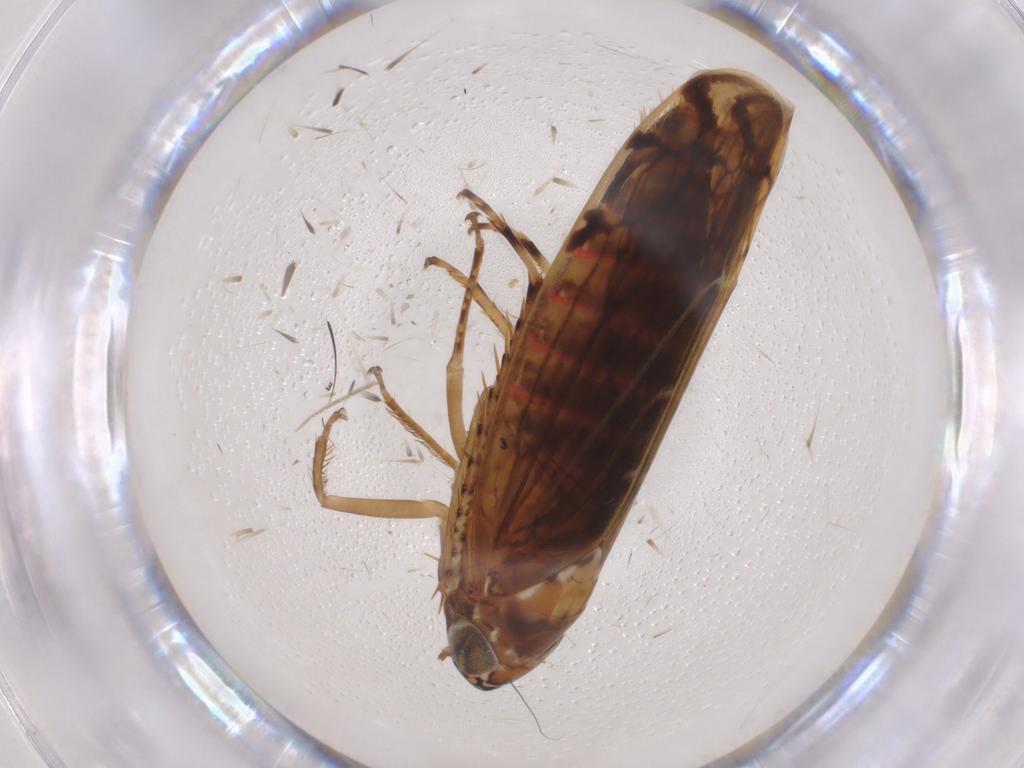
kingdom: Animalia
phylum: Arthropoda
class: Insecta
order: Hemiptera
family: Cicadellidae
